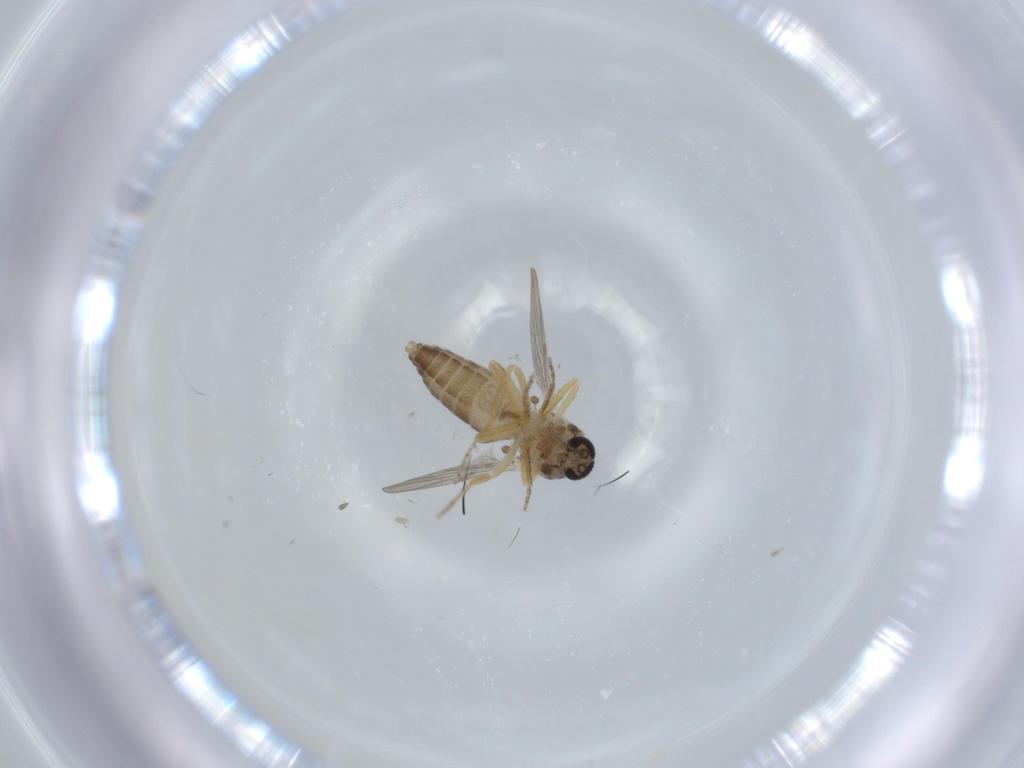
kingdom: Animalia
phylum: Arthropoda
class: Insecta
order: Diptera
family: Ceratopogonidae
